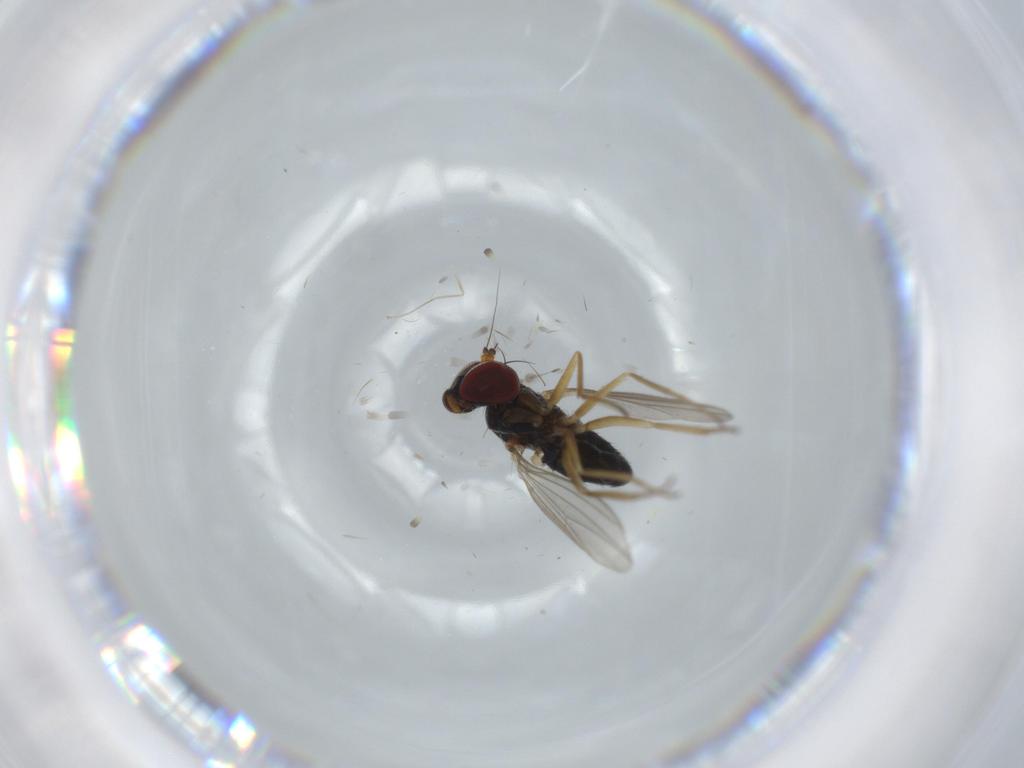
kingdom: Animalia
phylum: Arthropoda
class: Insecta
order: Diptera
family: Dolichopodidae
